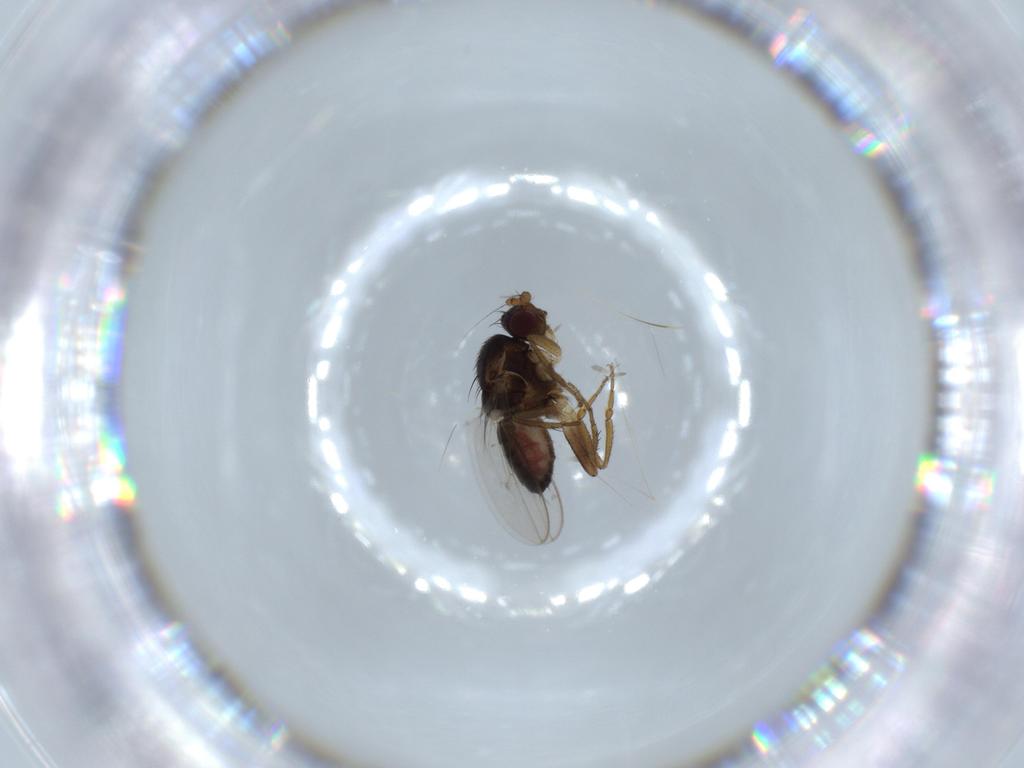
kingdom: Animalia
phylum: Arthropoda
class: Insecta
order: Diptera
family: Sphaeroceridae
